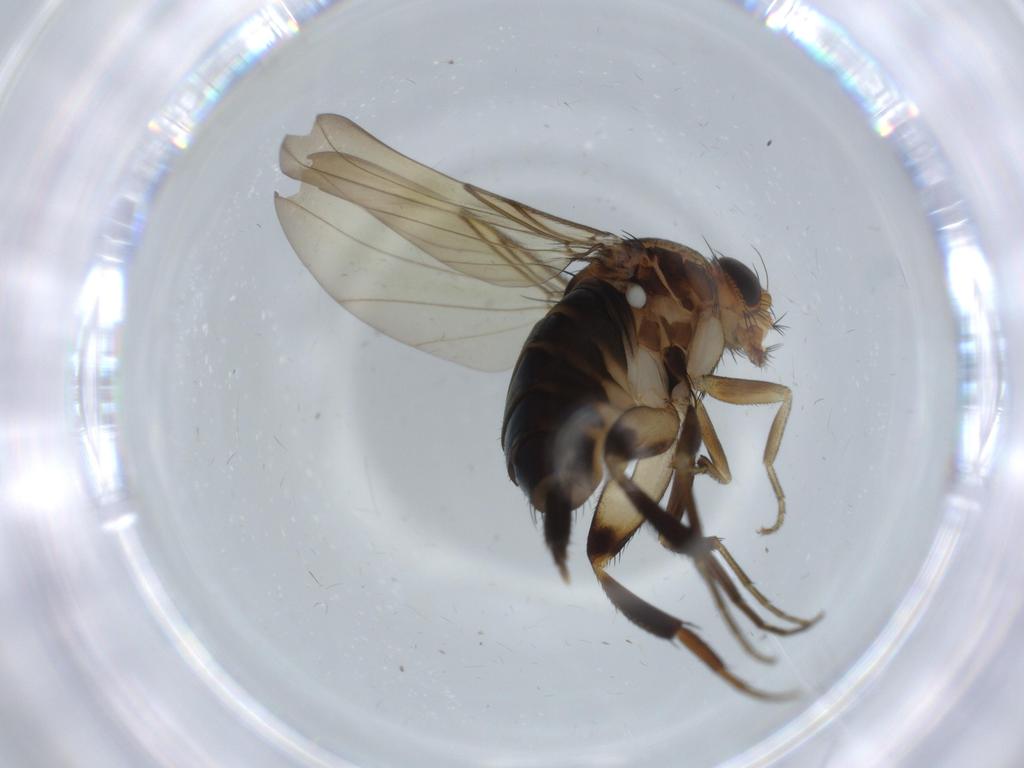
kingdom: Animalia
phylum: Arthropoda
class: Insecta
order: Diptera
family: Phoridae
